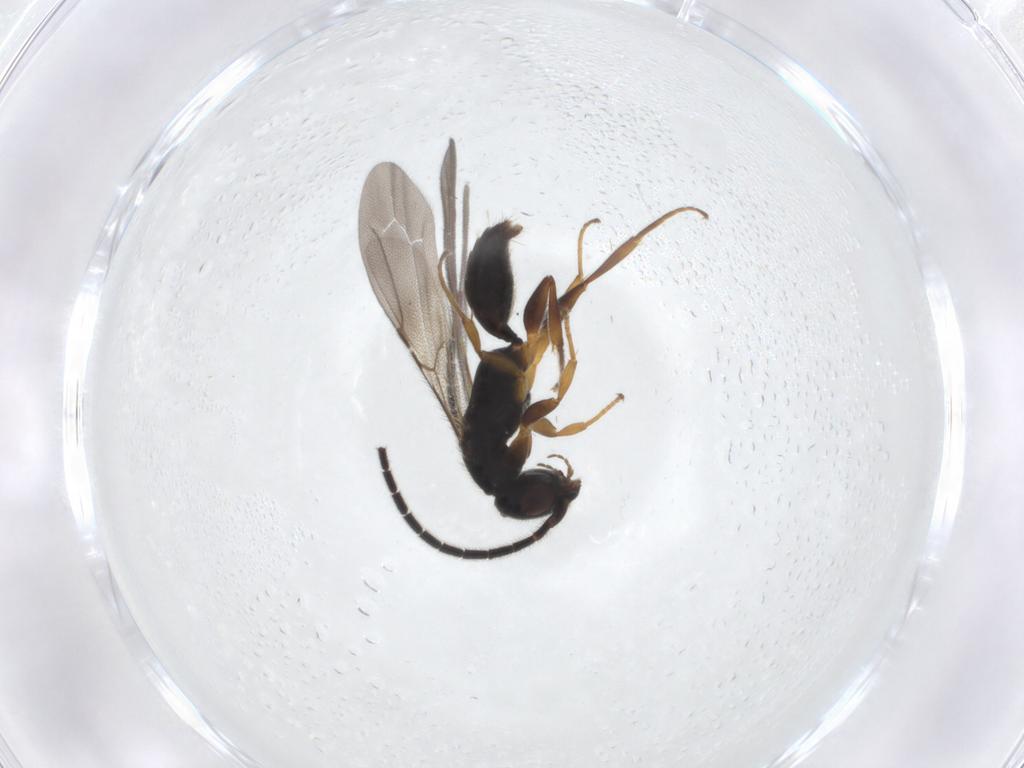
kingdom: Animalia
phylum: Arthropoda
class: Insecta
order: Hymenoptera
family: Bethylidae
